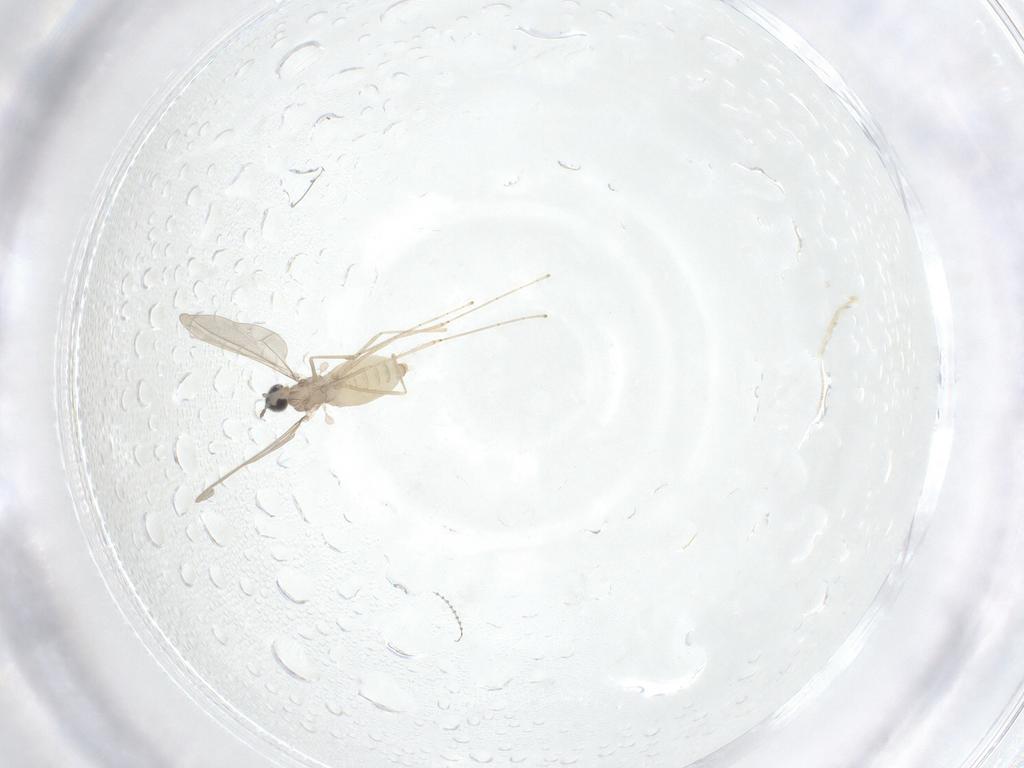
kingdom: Animalia
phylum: Arthropoda
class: Insecta
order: Diptera
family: Cecidomyiidae
